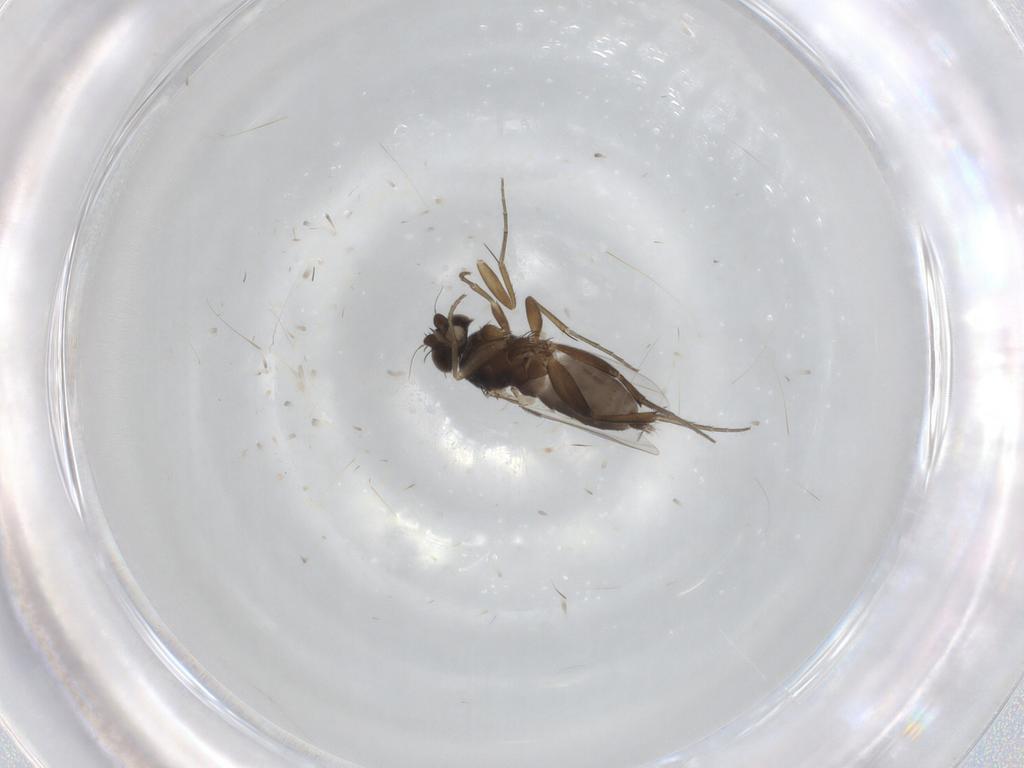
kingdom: Animalia
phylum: Arthropoda
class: Insecta
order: Diptera
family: Phoridae
